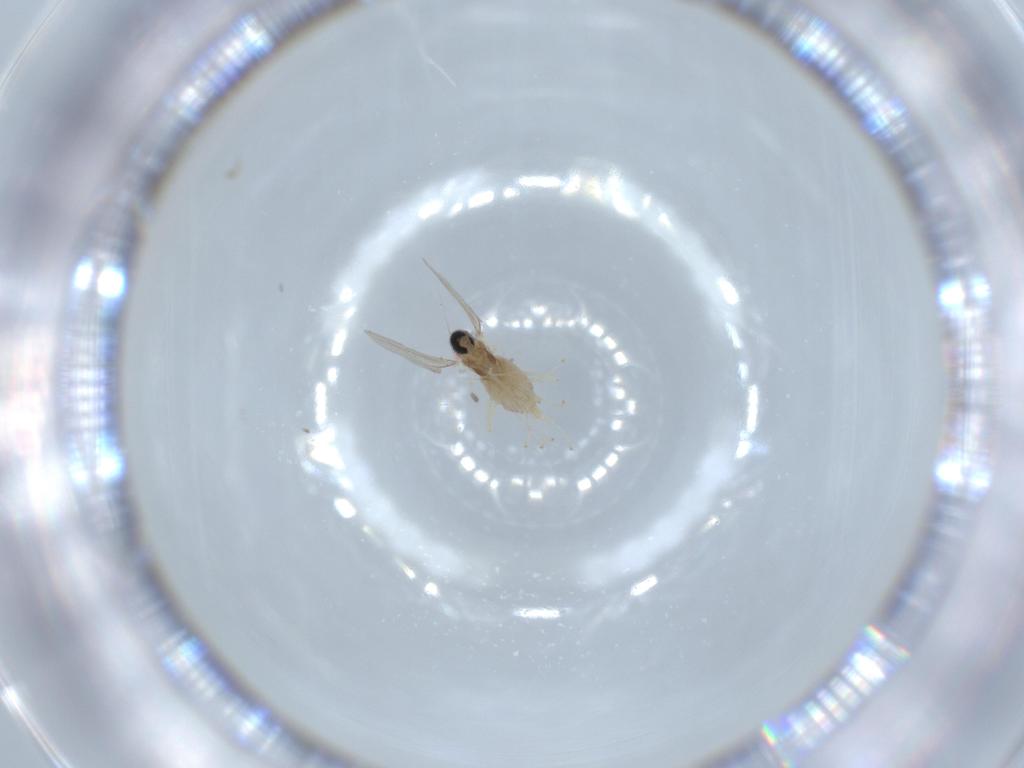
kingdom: Animalia
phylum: Arthropoda
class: Insecta
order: Diptera
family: Cecidomyiidae
